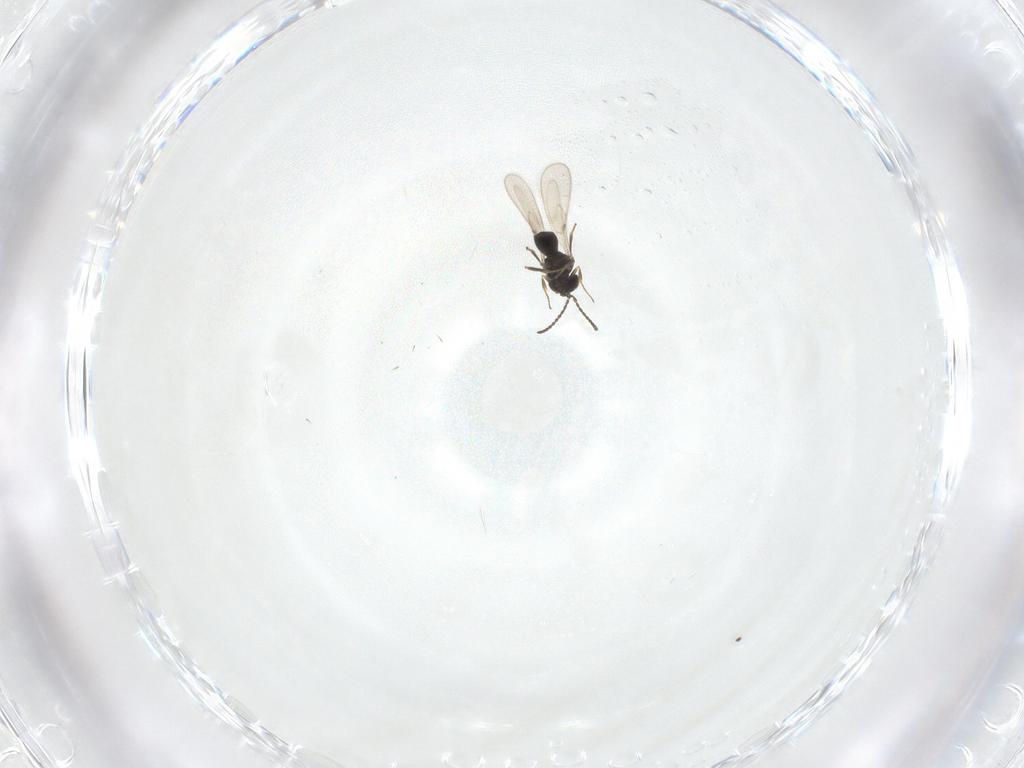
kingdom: Animalia
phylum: Arthropoda
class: Insecta
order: Hymenoptera
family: Scelionidae
